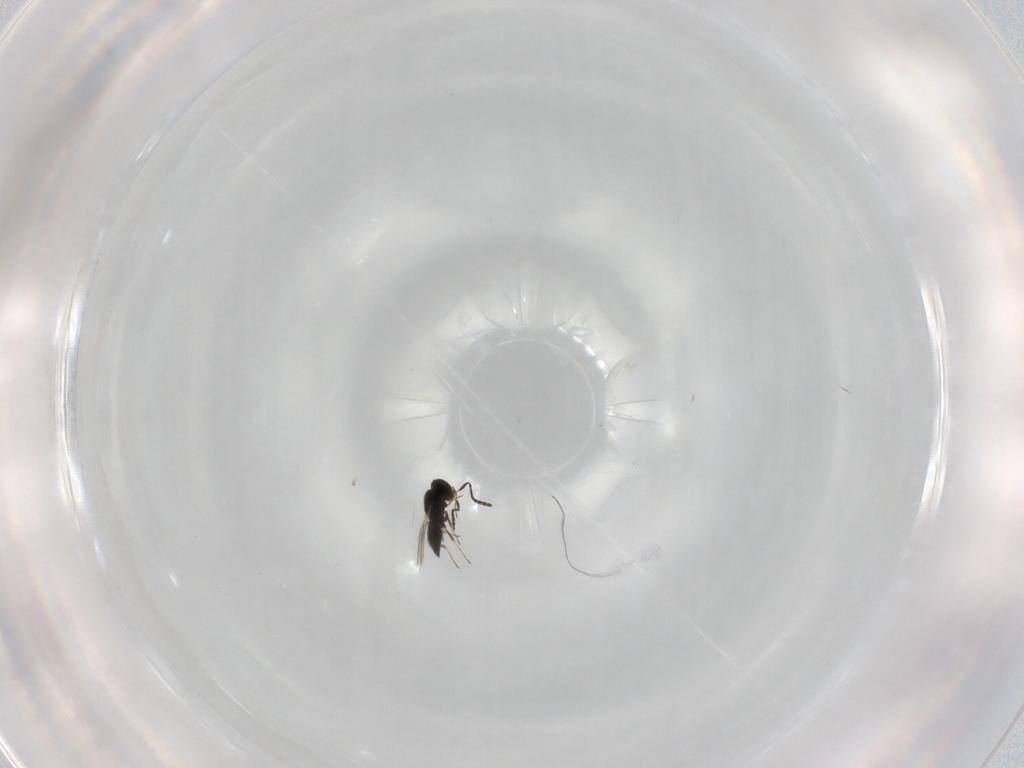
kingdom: Animalia
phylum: Arthropoda
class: Insecta
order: Hymenoptera
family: Scelionidae
